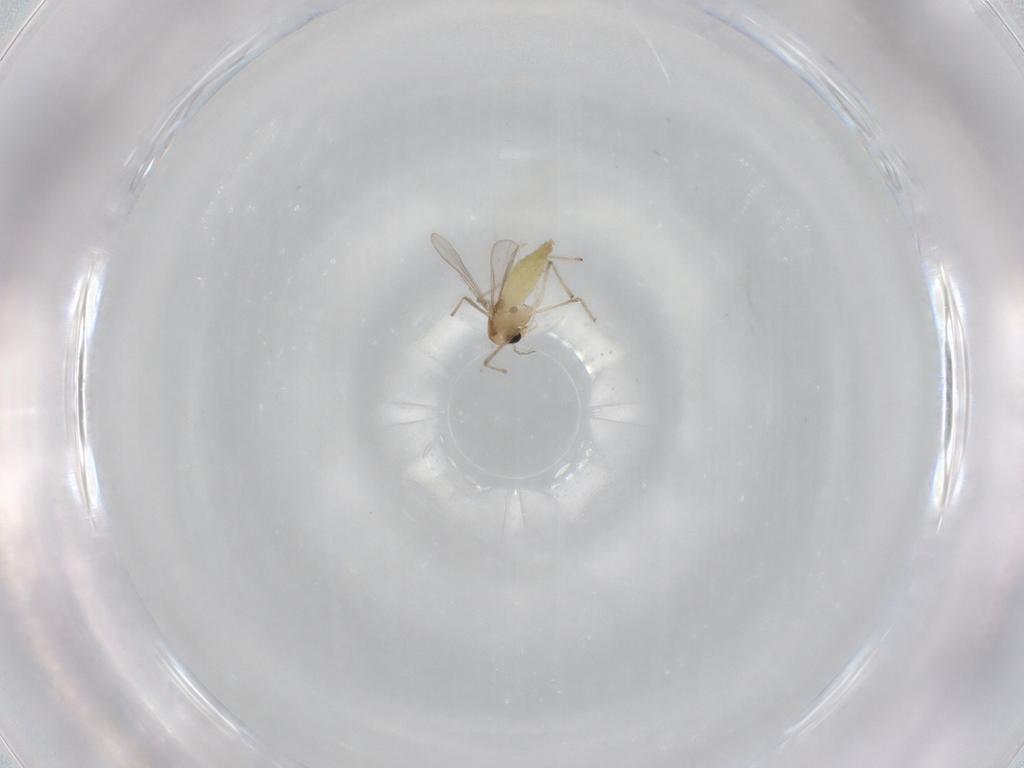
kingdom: Animalia
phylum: Arthropoda
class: Insecta
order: Diptera
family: Chironomidae
